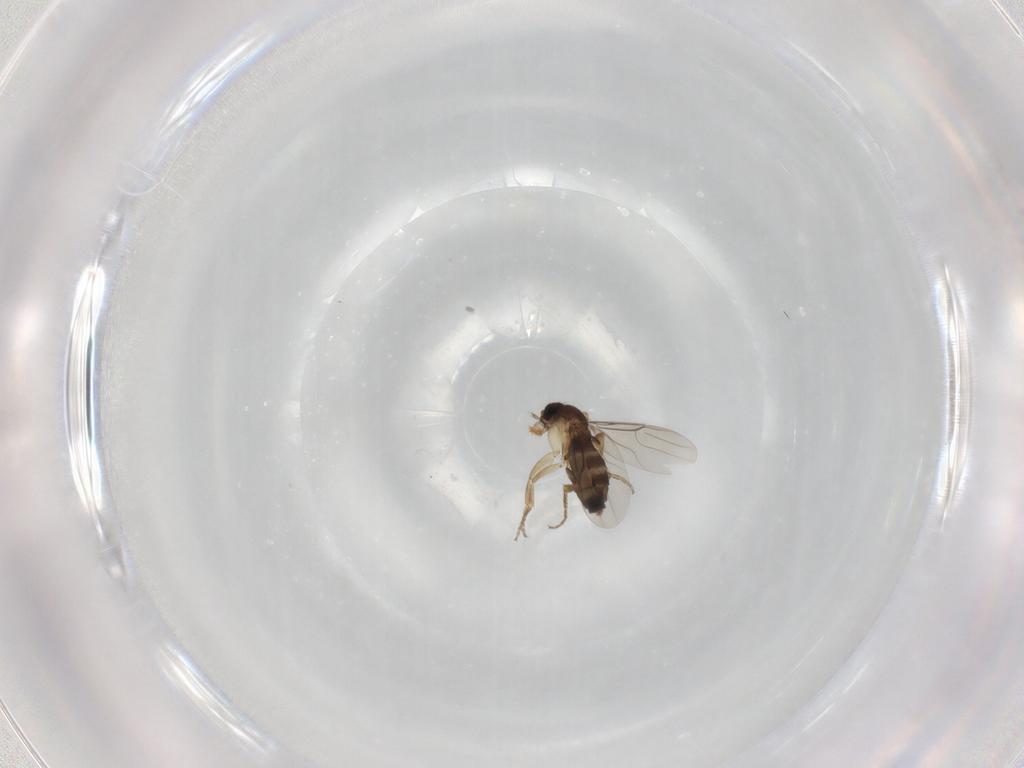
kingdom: Animalia
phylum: Arthropoda
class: Insecta
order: Diptera
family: Phoridae
